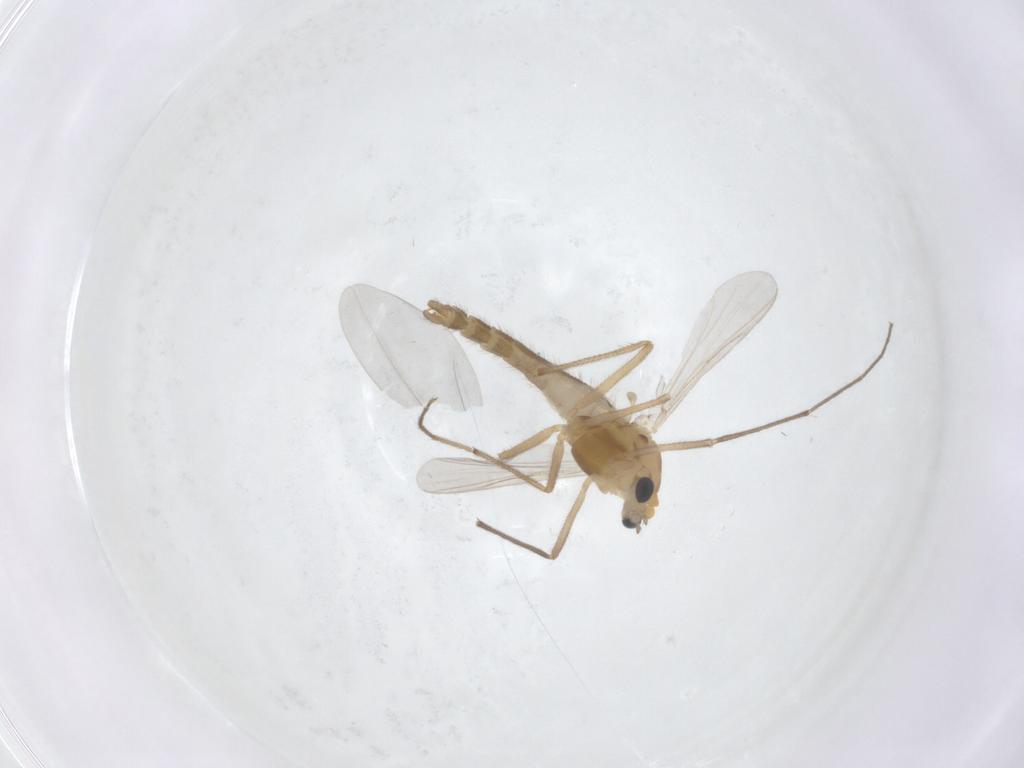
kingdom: Animalia
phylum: Arthropoda
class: Insecta
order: Diptera
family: Cecidomyiidae
